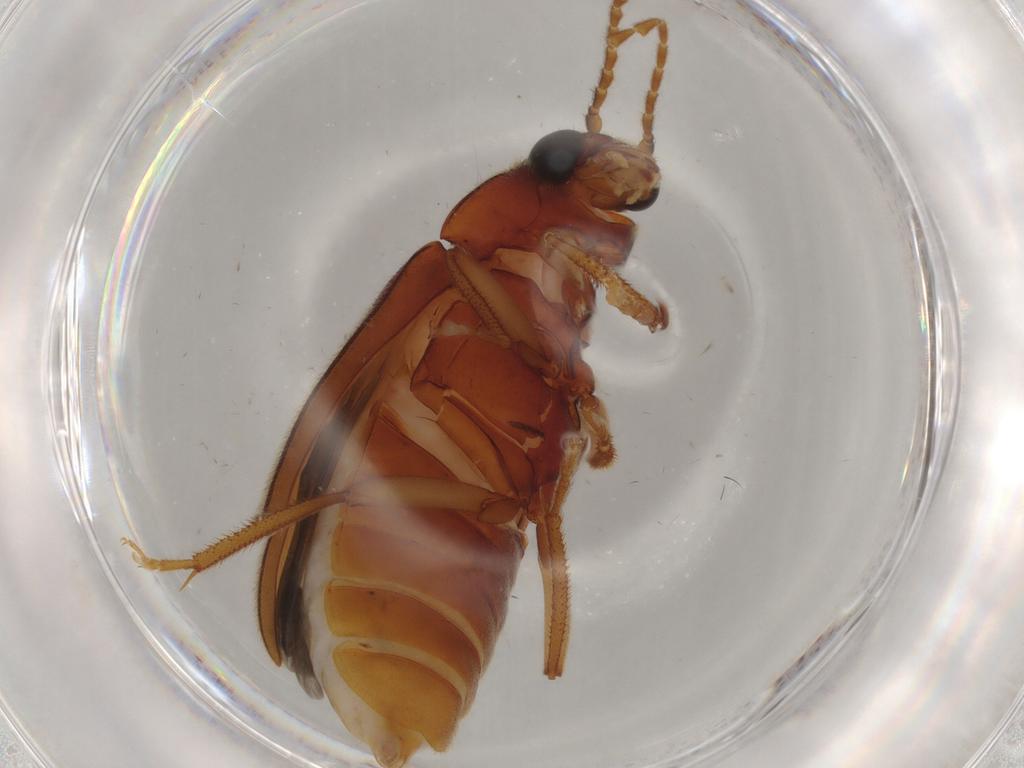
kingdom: Animalia
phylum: Arthropoda
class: Insecta
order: Coleoptera
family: Ptilodactylidae
